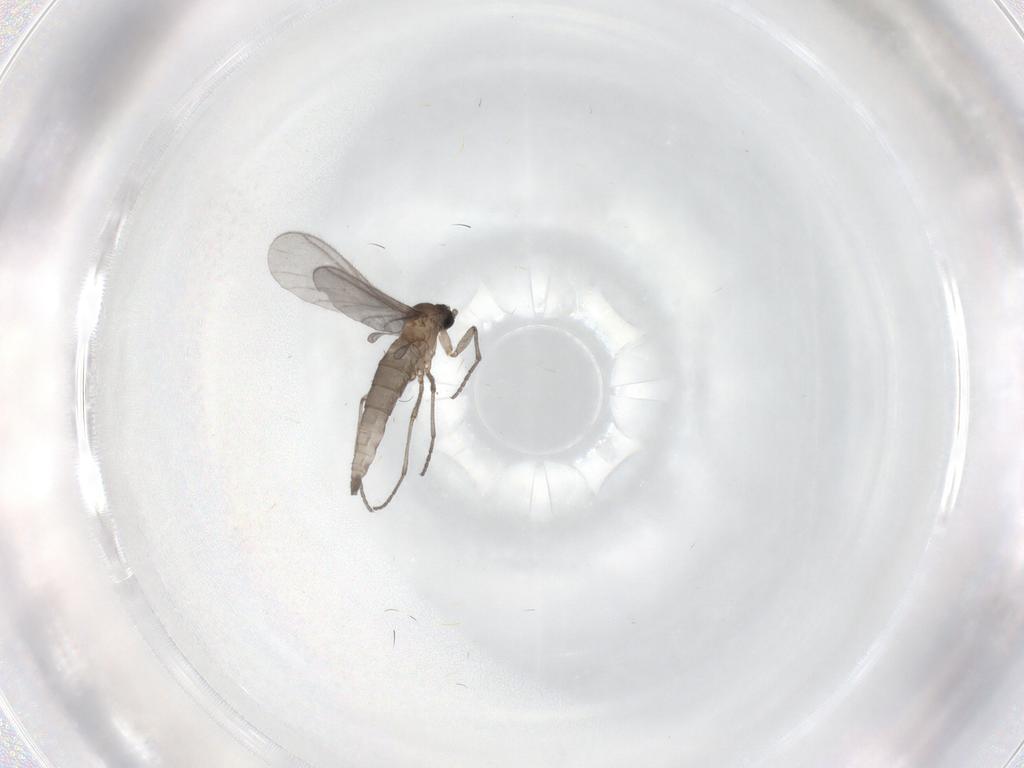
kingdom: Animalia
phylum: Arthropoda
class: Insecta
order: Diptera
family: Sciaridae
